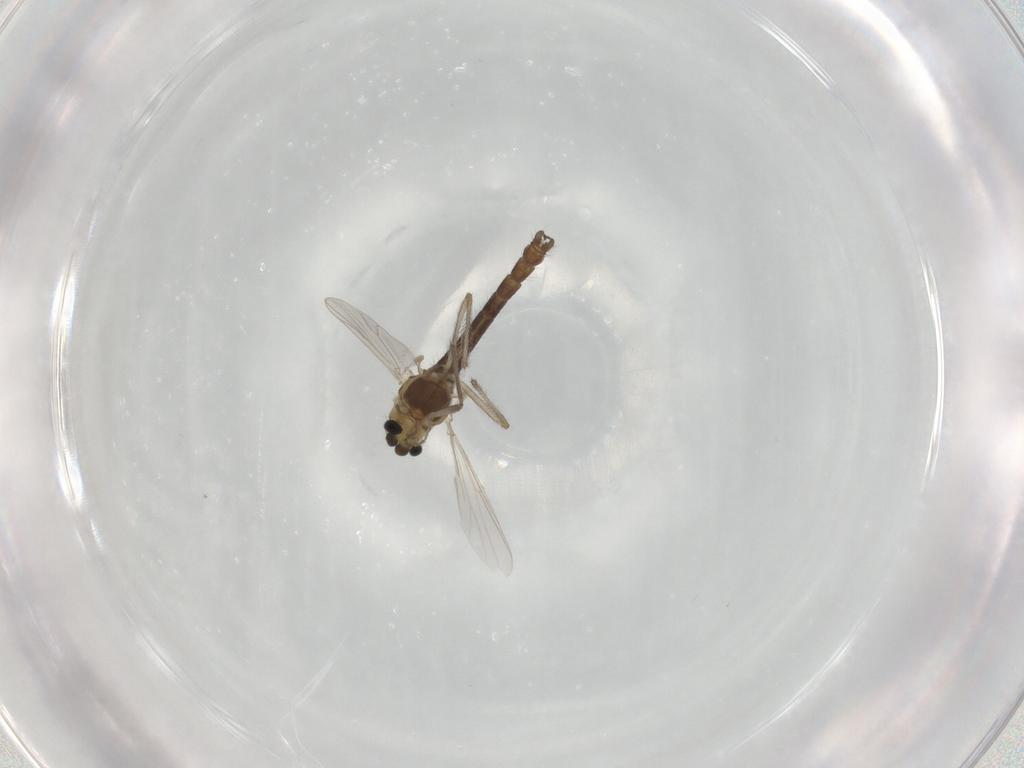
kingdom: Animalia
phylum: Arthropoda
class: Insecta
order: Diptera
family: Chironomidae
